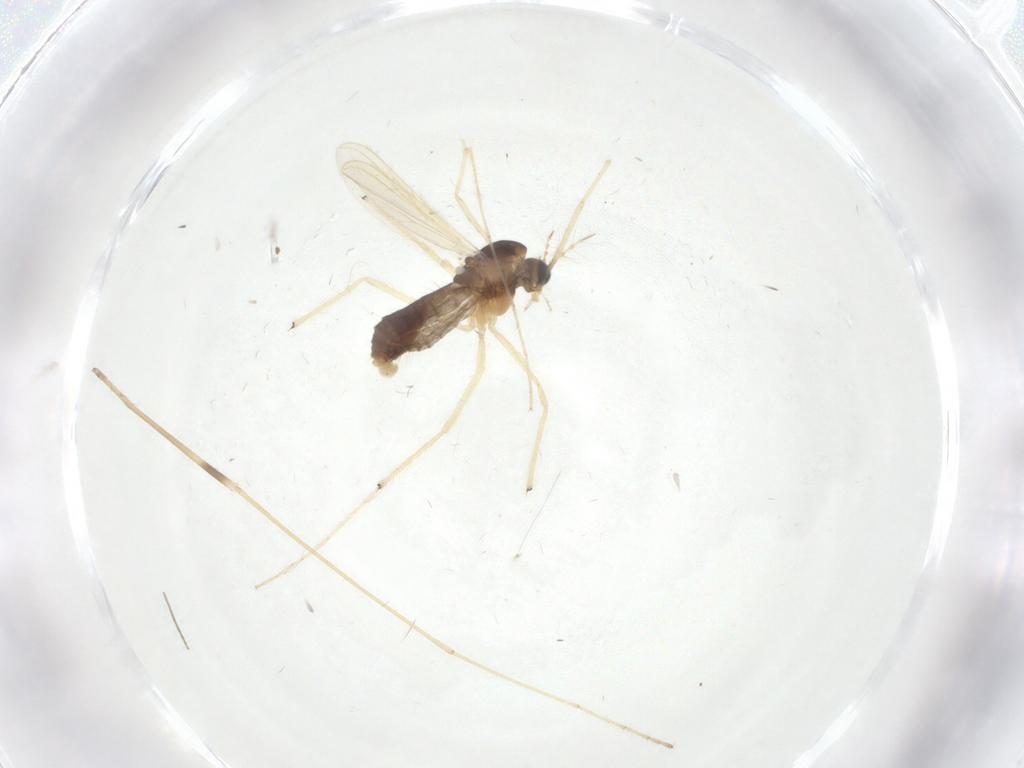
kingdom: Animalia
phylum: Arthropoda
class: Insecta
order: Diptera
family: Chironomidae
